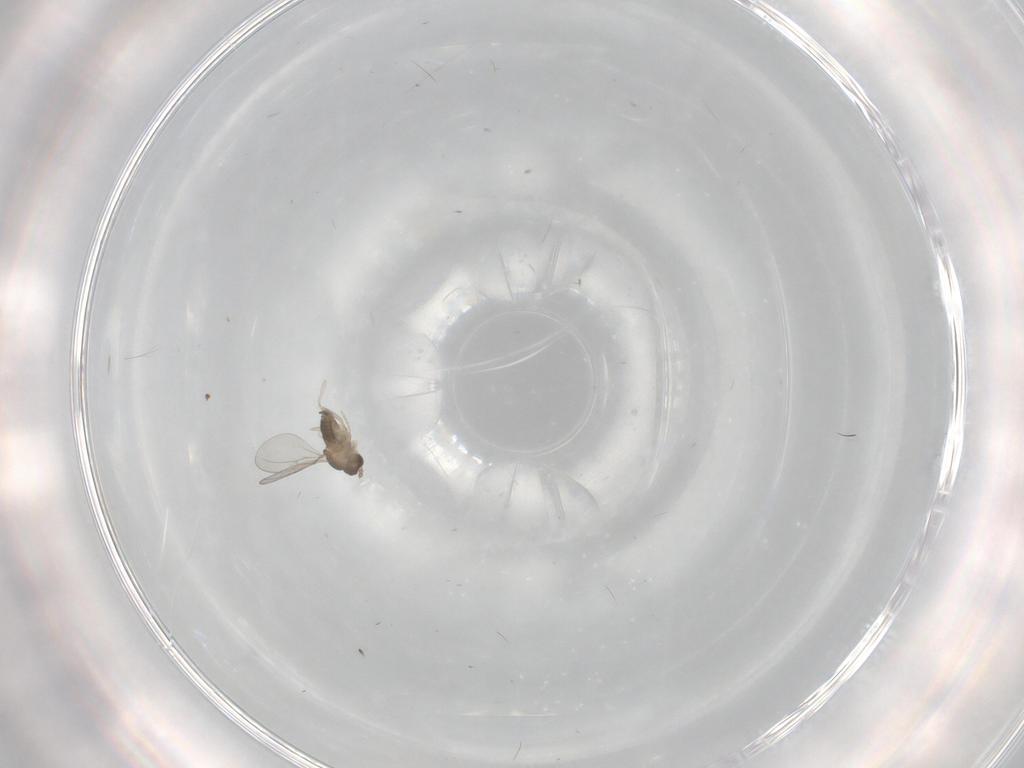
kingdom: Animalia
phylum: Arthropoda
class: Insecta
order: Diptera
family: Cecidomyiidae
